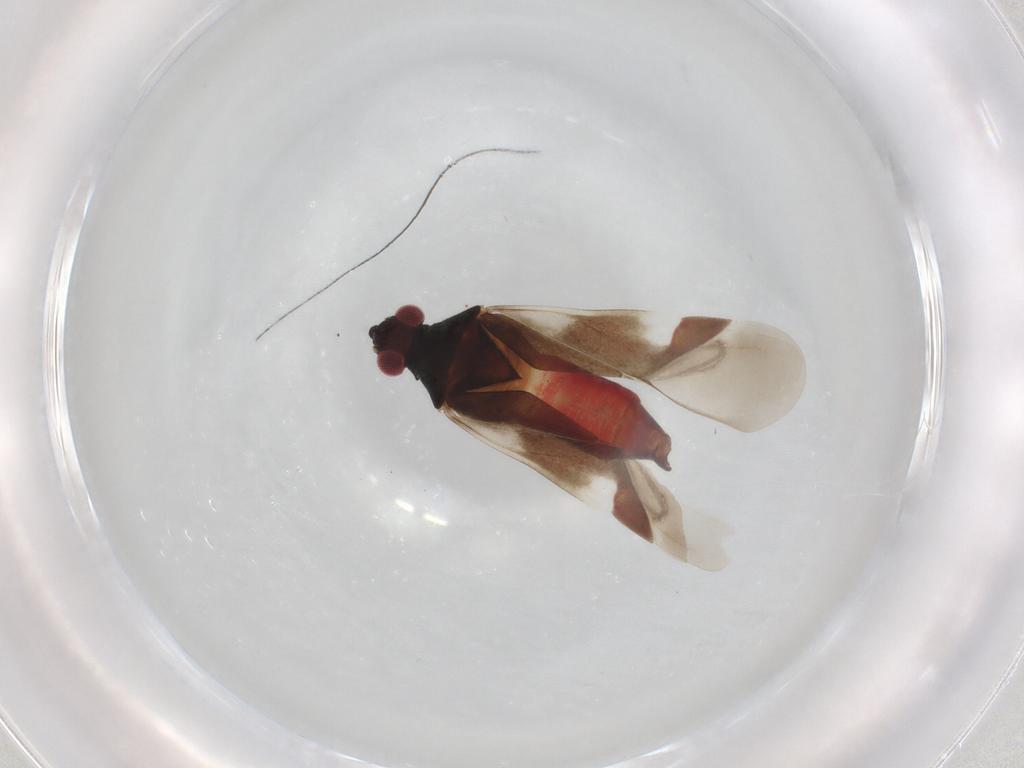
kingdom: Animalia
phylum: Arthropoda
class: Insecta
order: Hemiptera
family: Miridae
